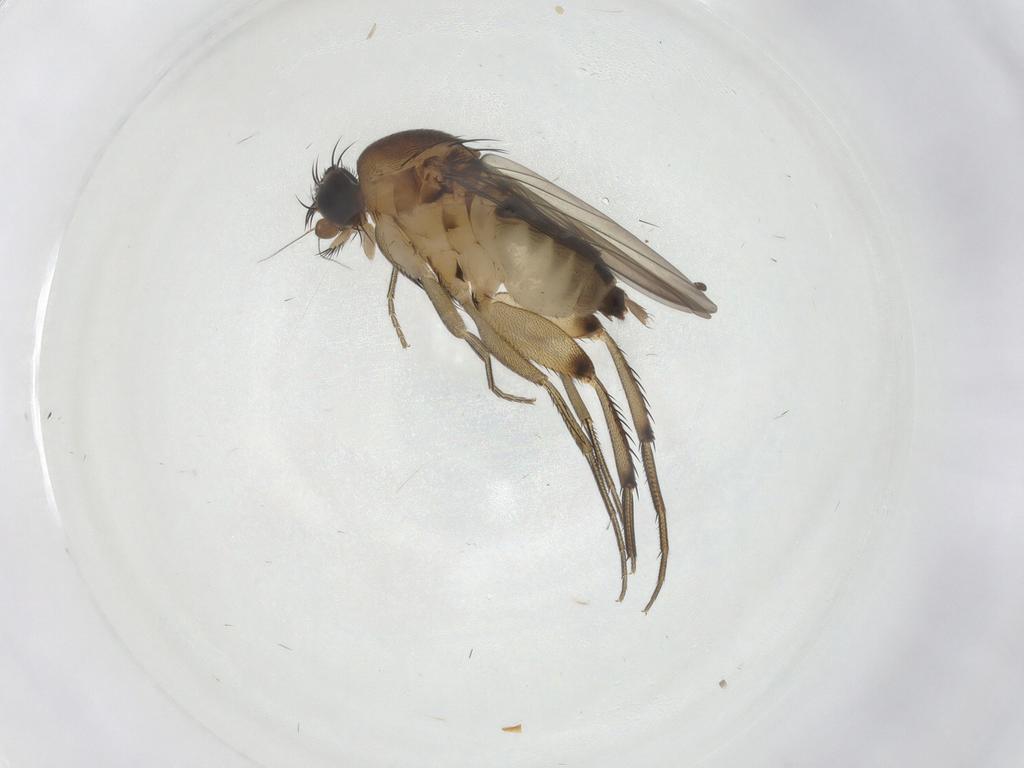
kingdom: Animalia
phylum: Arthropoda
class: Insecta
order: Diptera
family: Phoridae
